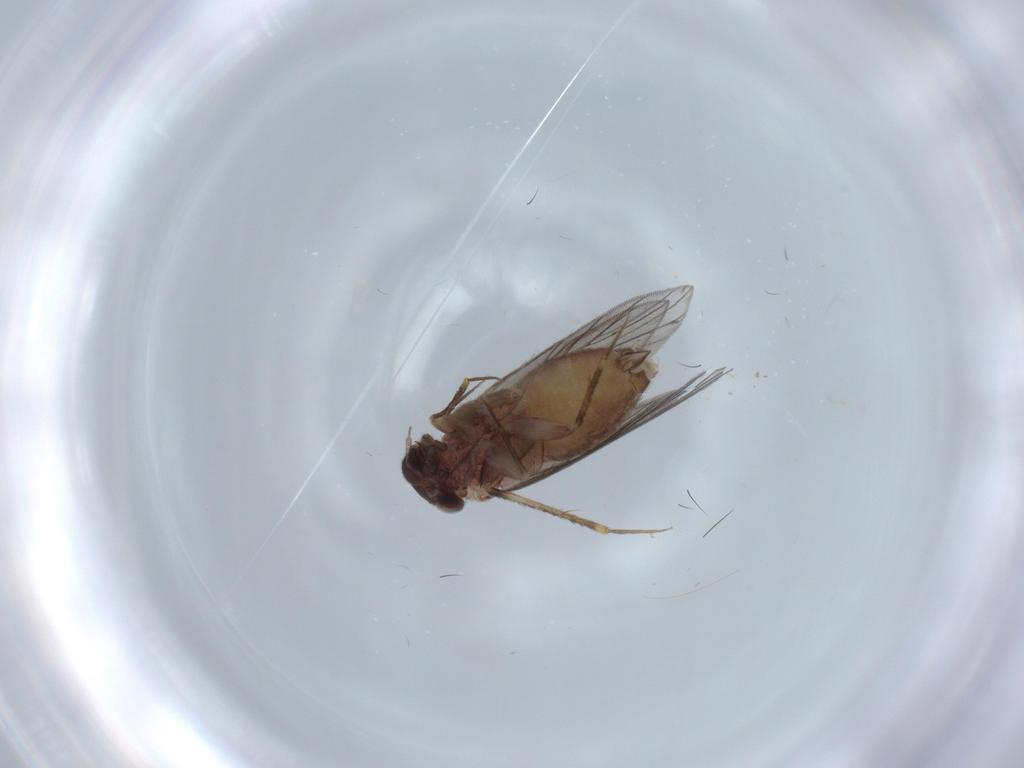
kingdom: Animalia
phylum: Arthropoda
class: Insecta
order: Psocodea
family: Lepidopsocidae
